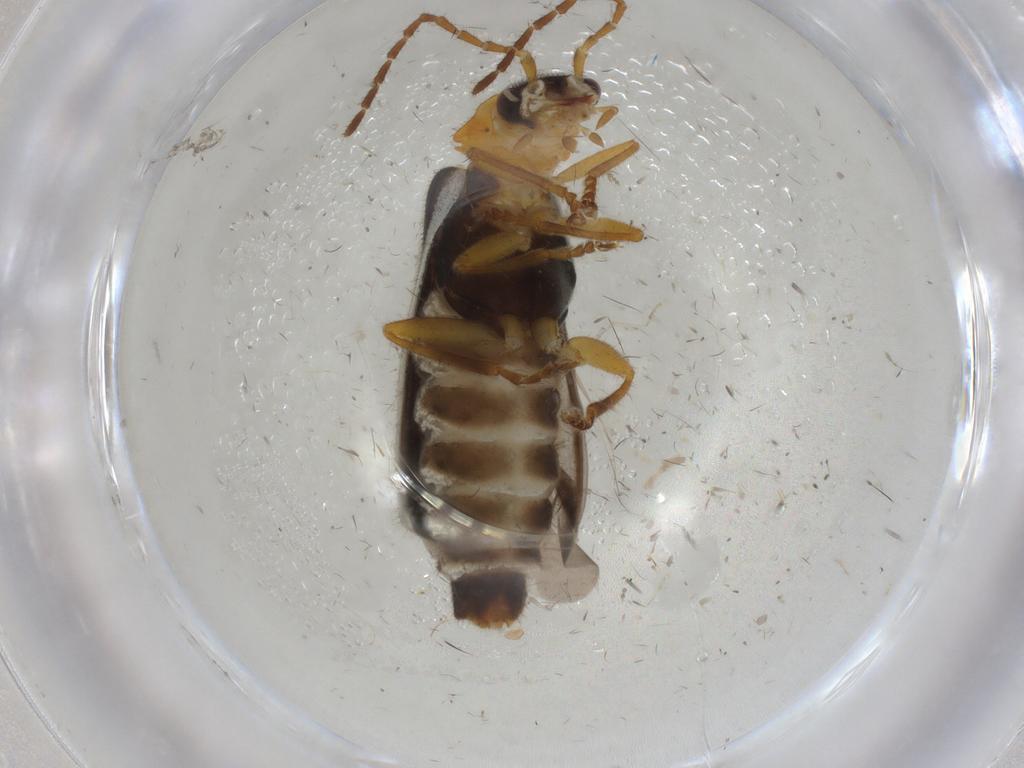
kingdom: Animalia
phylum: Arthropoda
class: Insecta
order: Coleoptera
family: Cantharidae
